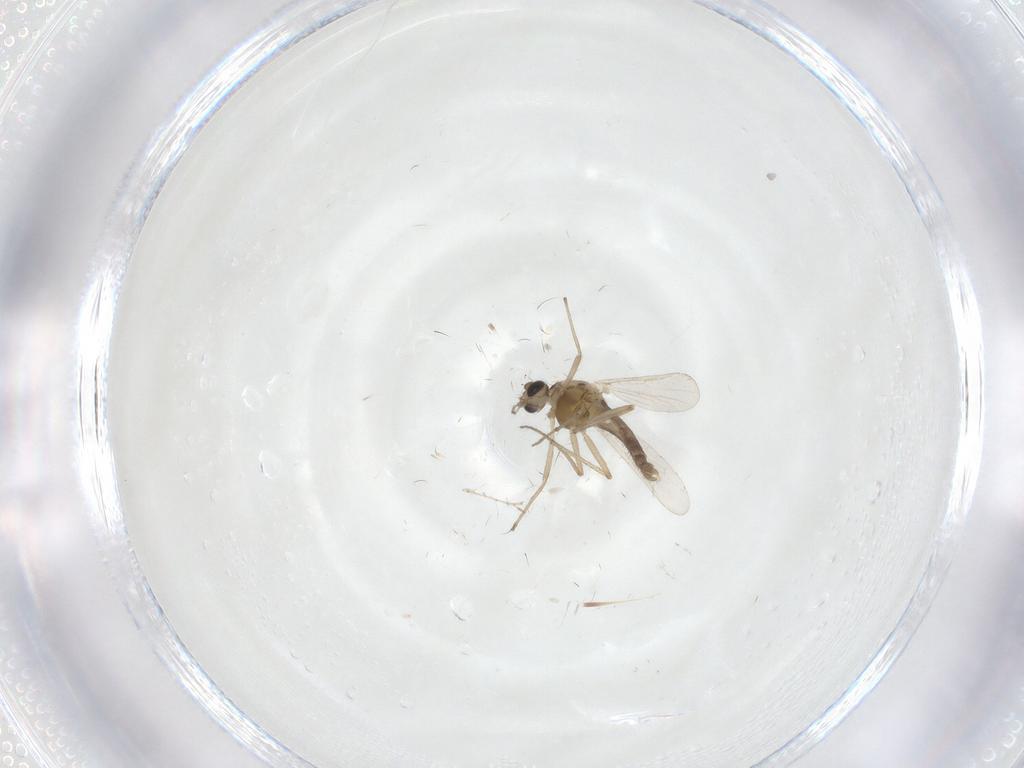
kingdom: Animalia
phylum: Arthropoda
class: Insecta
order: Diptera
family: Chironomidae
